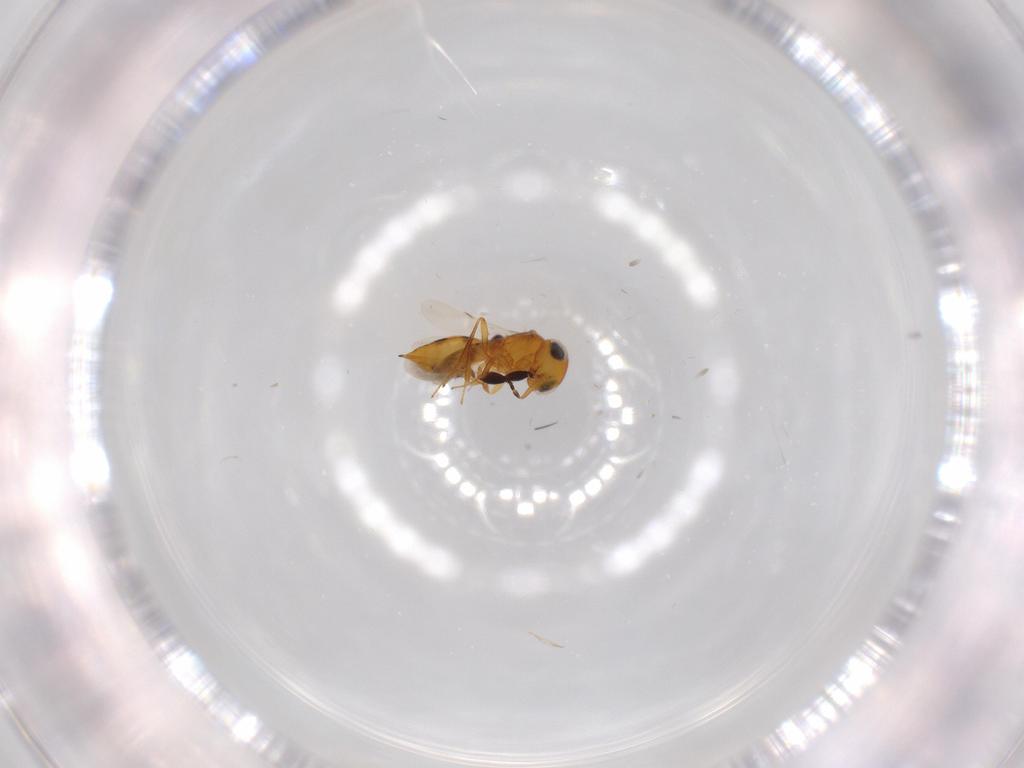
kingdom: Animalia
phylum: Arthropoda
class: Insecta
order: Hymenoptera
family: Scelionidae
